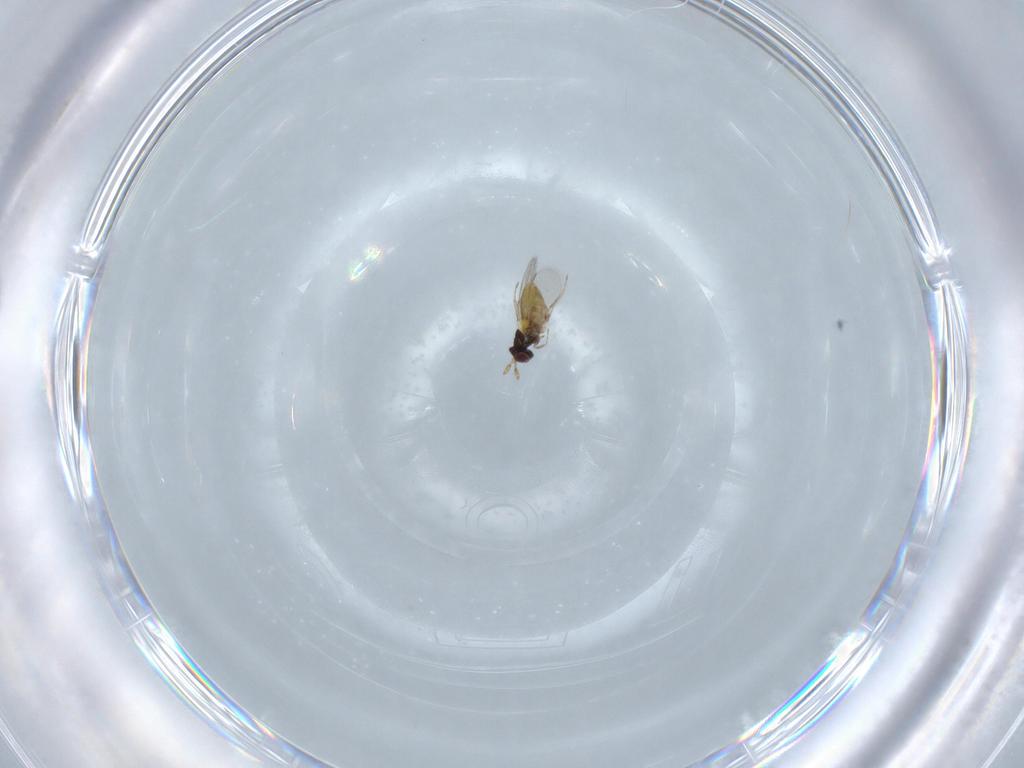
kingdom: Animalia
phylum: Arthropoda
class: Insecta
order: Hymenoptera
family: Trichogrammatidae
